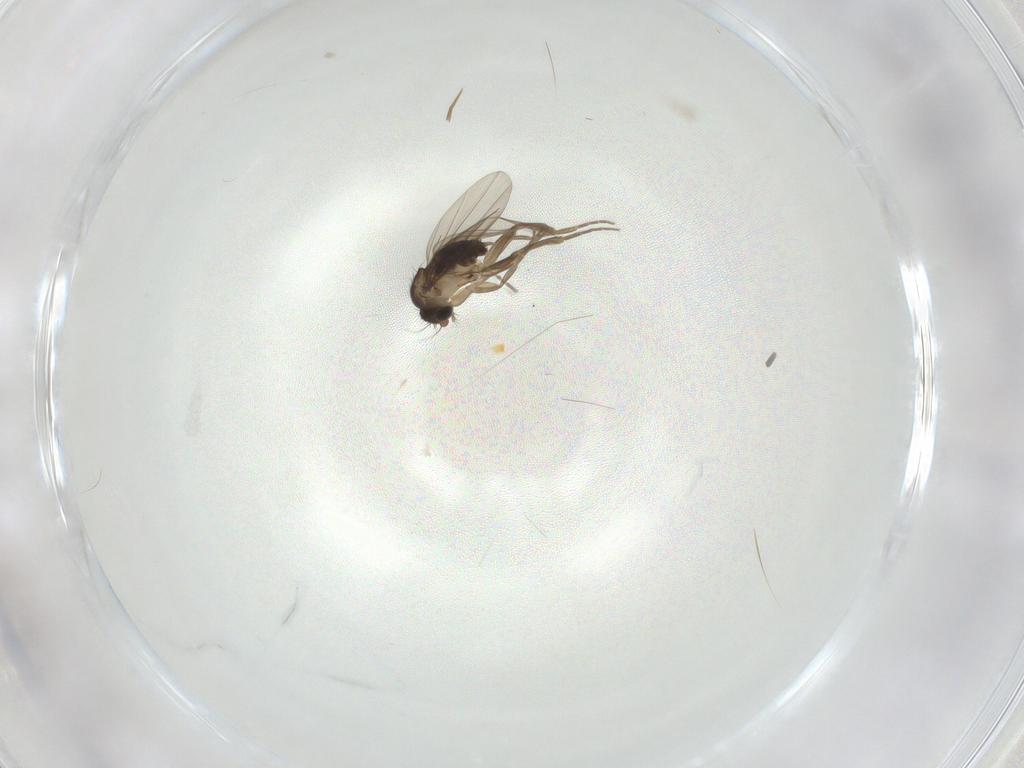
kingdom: Animalia
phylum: Arthropoda
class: Insecta
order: Diptera
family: Phoridae
